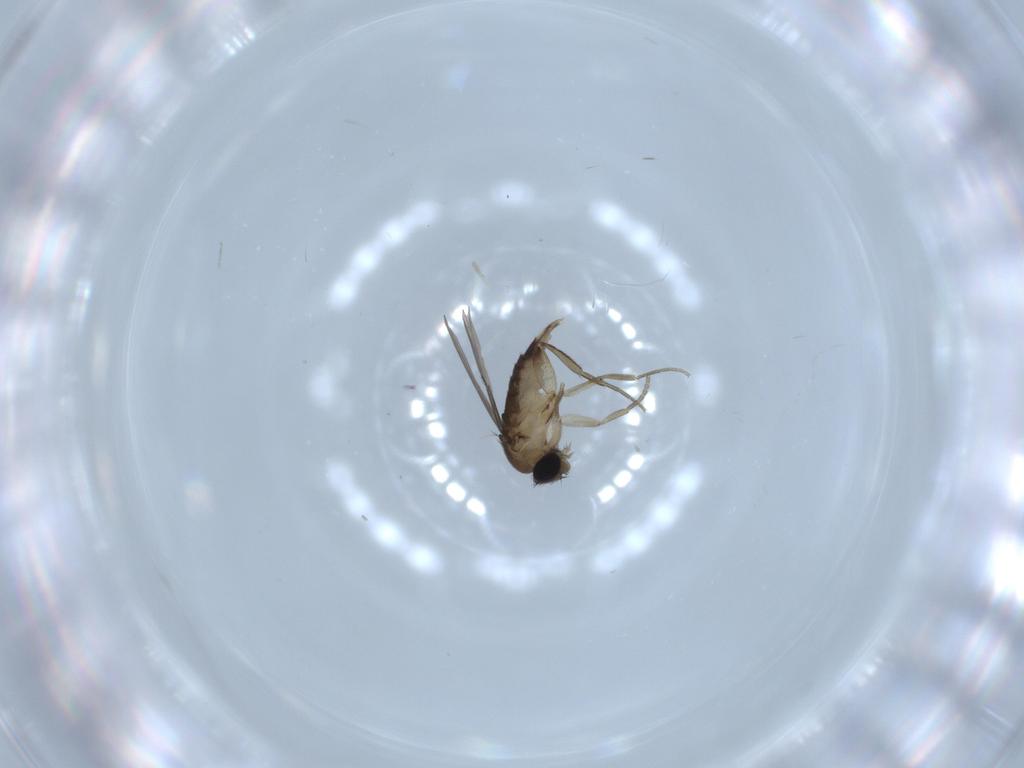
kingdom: Animalia
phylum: Arthropoda
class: Insecta
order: Diptera
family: Phoridae
